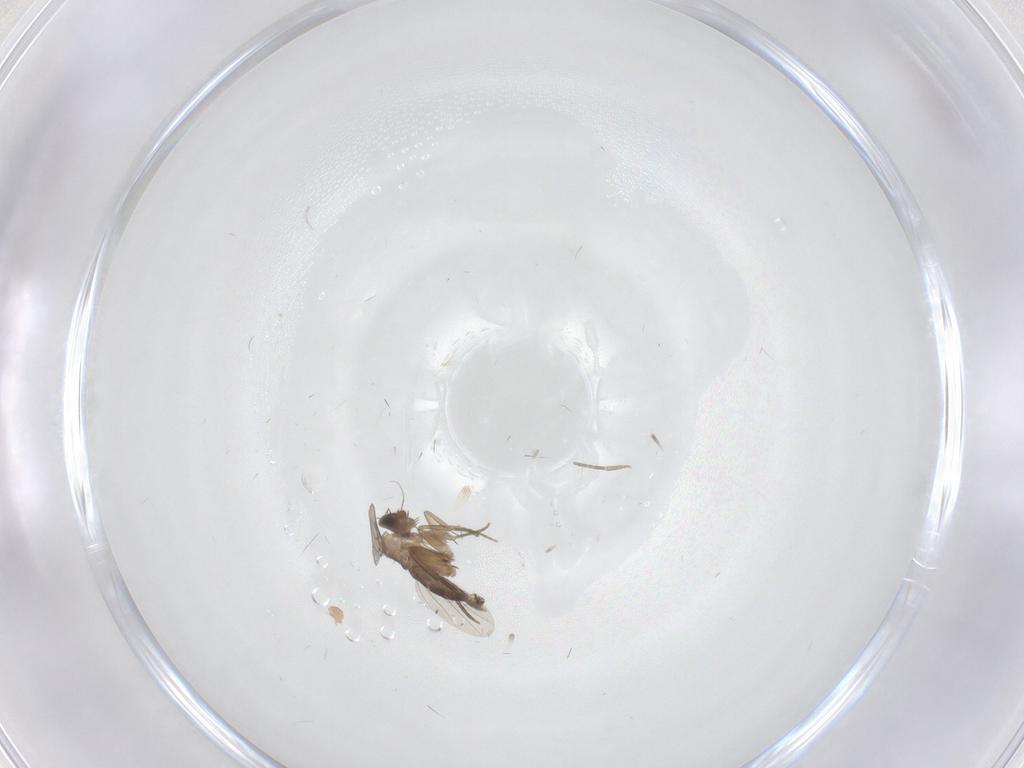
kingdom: Animalia
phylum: Arthropoda
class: Insecta
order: Diptera
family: Phoridae
